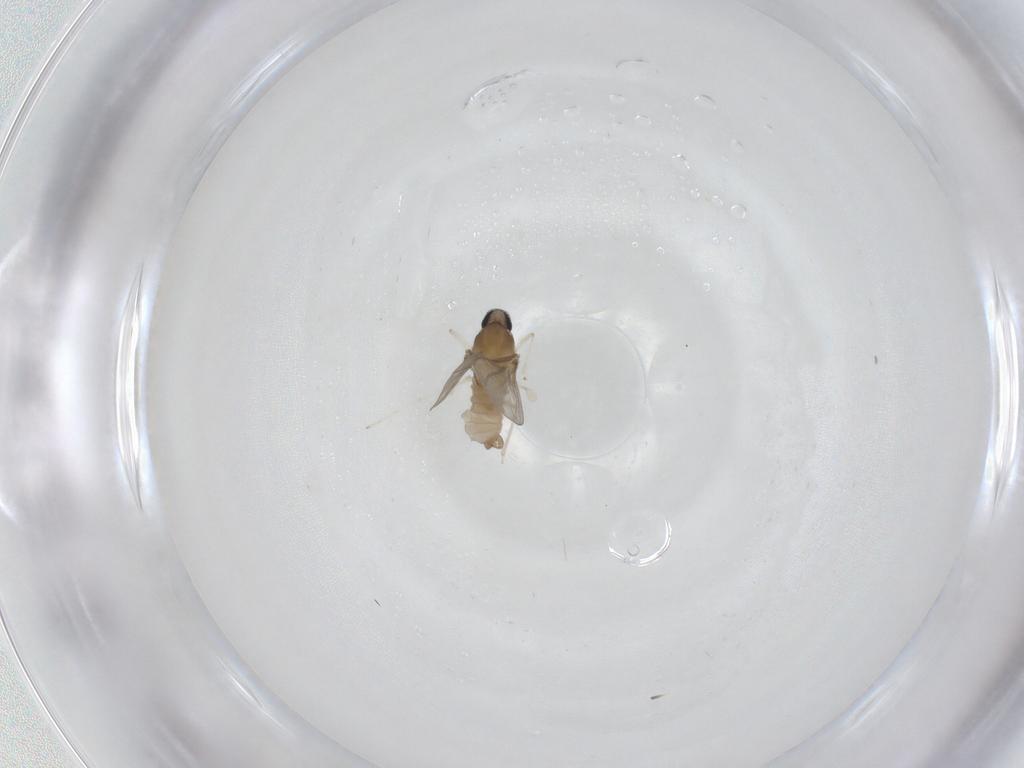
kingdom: Animalia
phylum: Arthropoda
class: Insecta
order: Diptera
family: Cecidomyiidae
